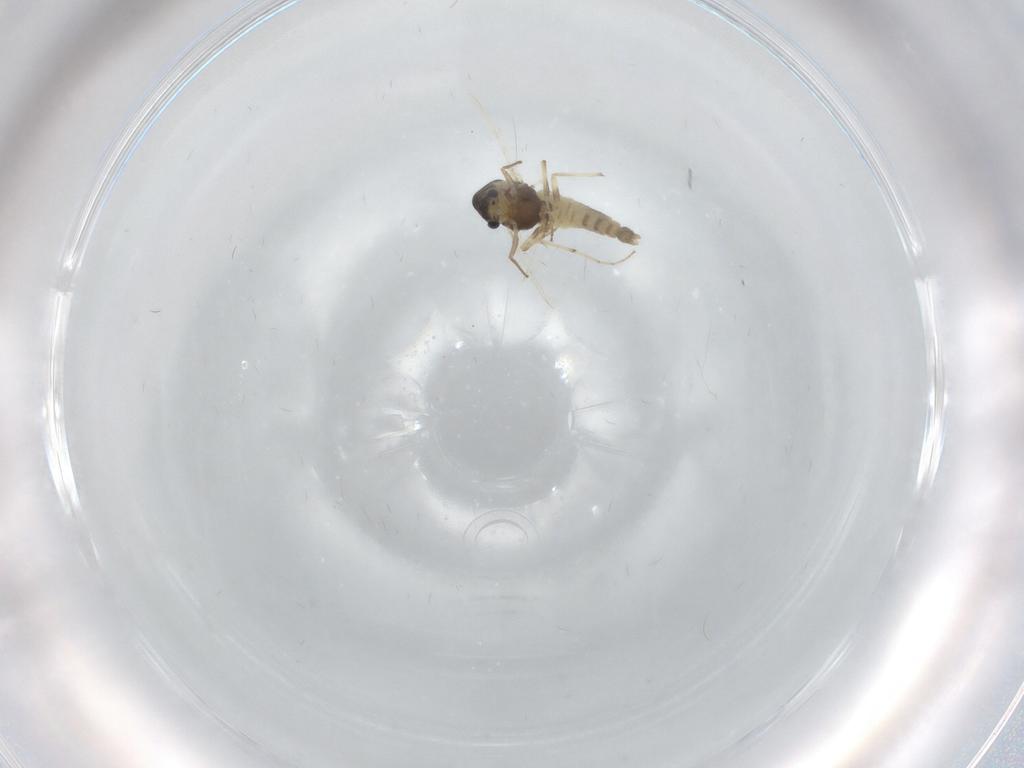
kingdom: Animalia
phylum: Arthropoda
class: Insecta
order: Diptera
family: Chironomidae
